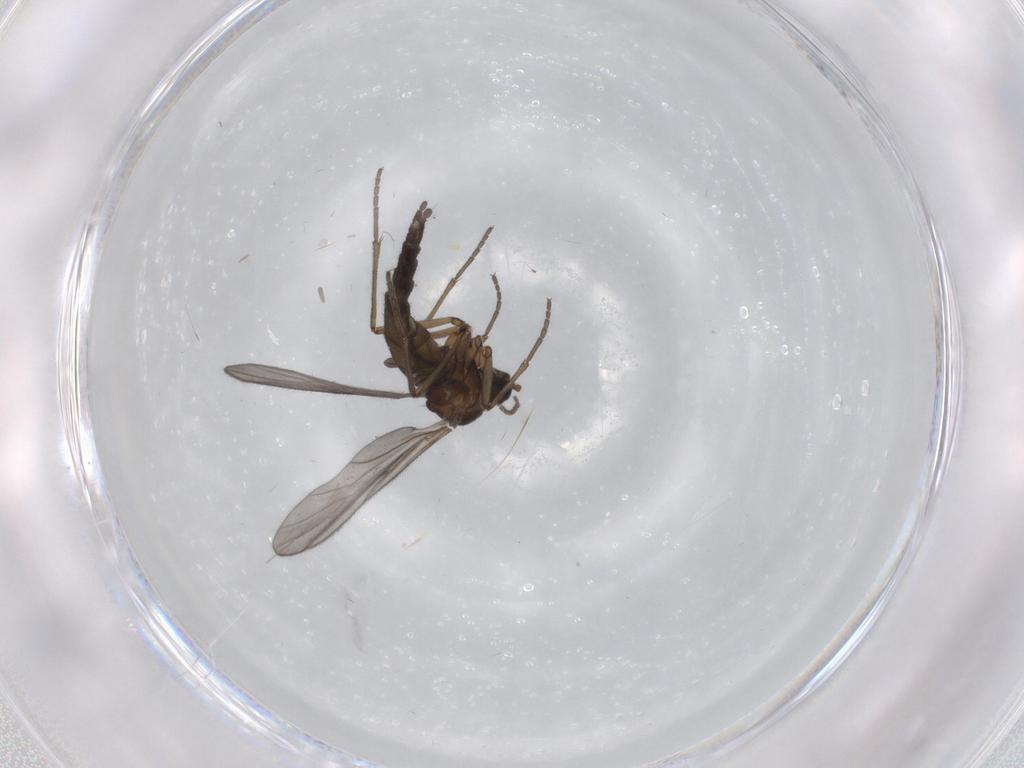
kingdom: Animalia
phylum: Arthropoda
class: Insecta
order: Diptera
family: Sciaridae
